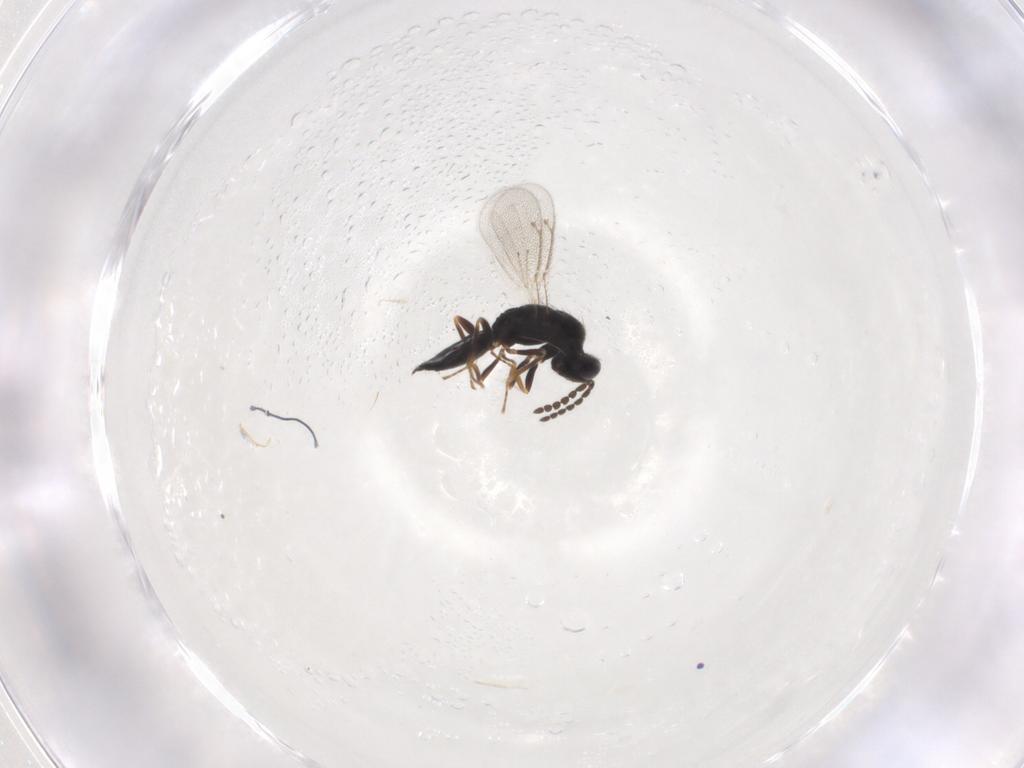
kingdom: Animalia
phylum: Arthropoda
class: Insecta
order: Hymenoptera
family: Eulophidae
